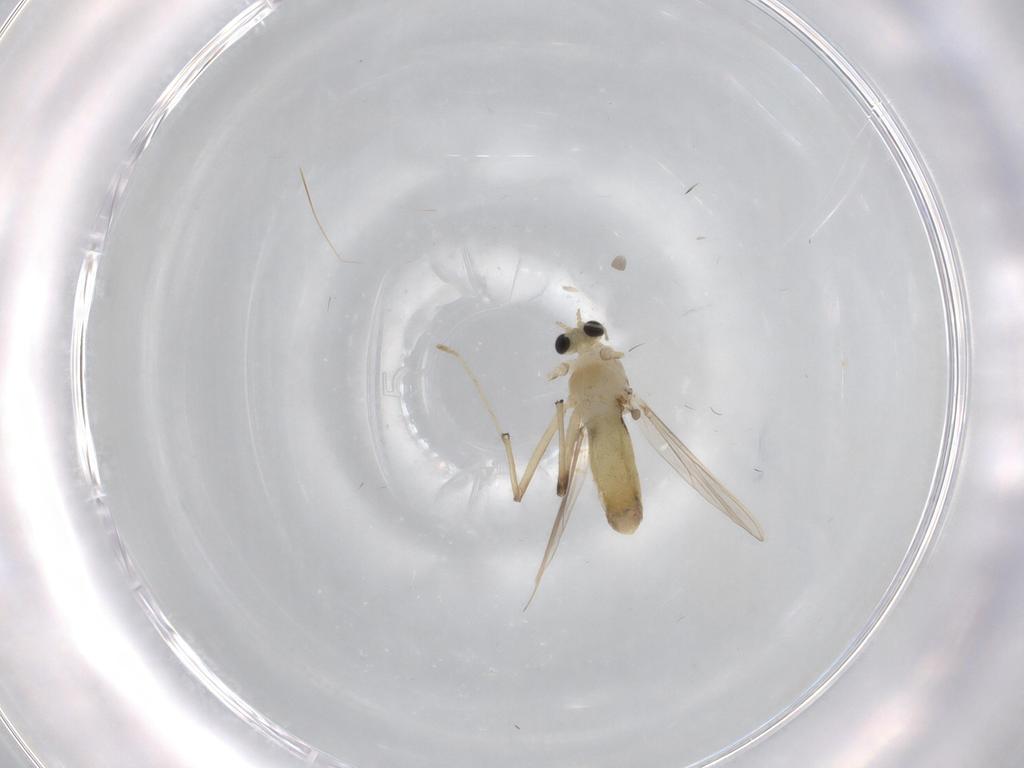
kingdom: Animalia
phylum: Arthropoda
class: Insecta
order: Diptera
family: Chironomidae
